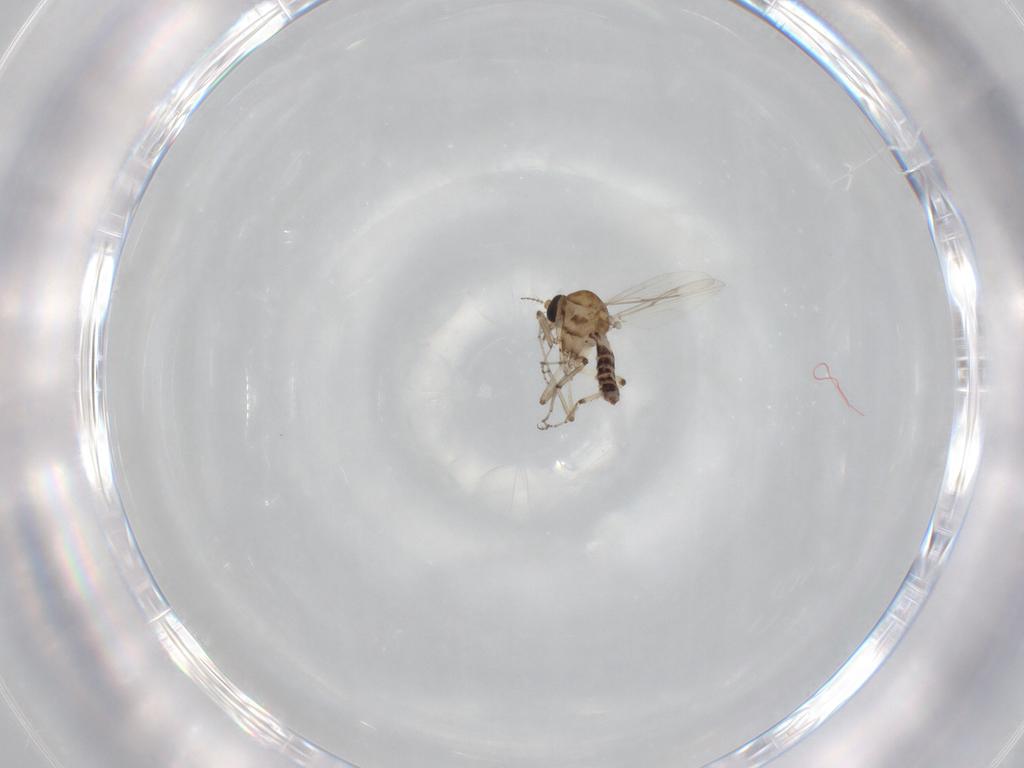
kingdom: Animalia
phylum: Arthropoda
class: Insecta
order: Diptera
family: Ceratopogonidae
